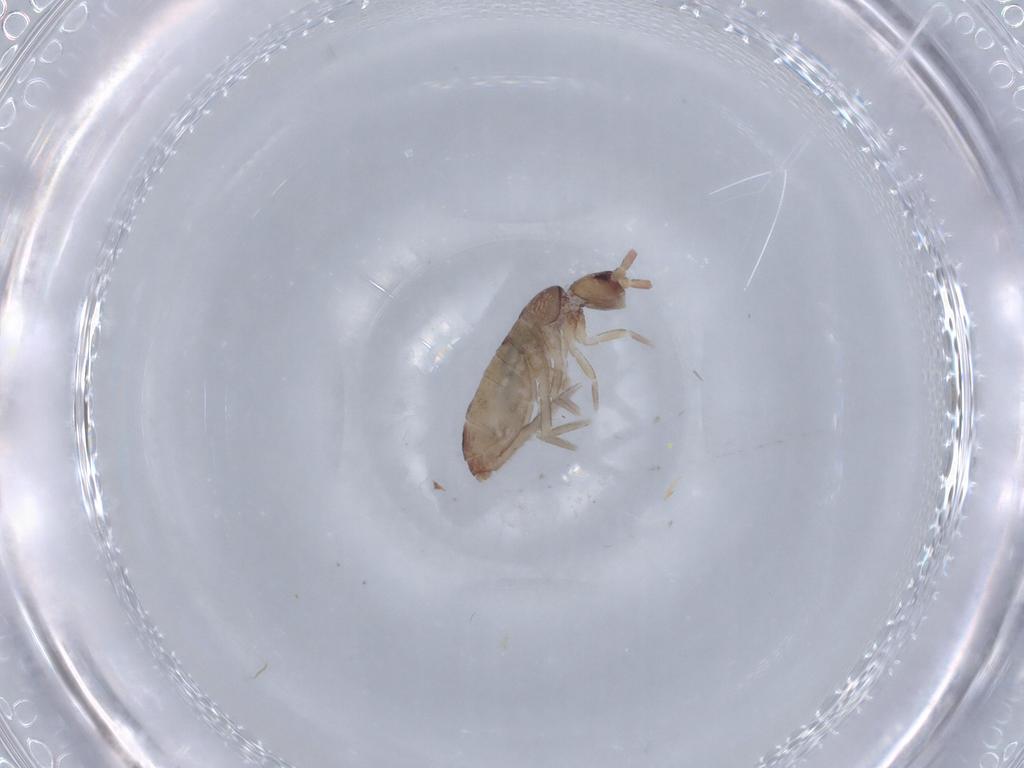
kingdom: Animalia
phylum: Arthropoda
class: Collembola
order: Entomobryomorpha
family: Tomoceridae
